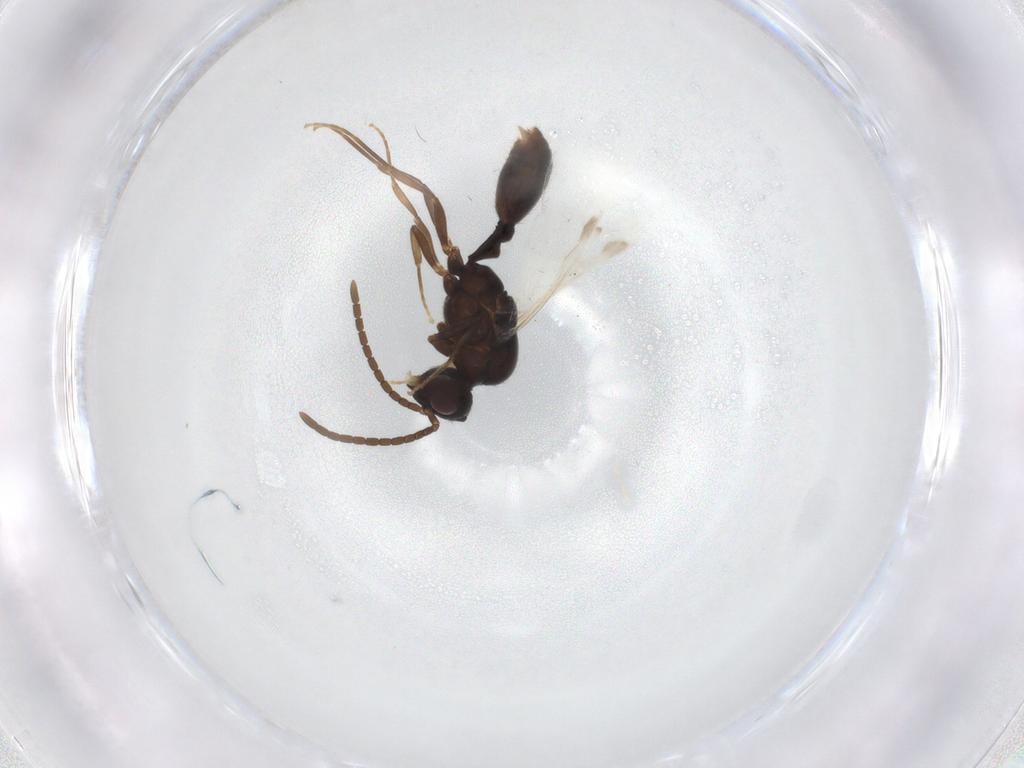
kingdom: Animalia
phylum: Arthropoda
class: Insecta
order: Hymenoptera
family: Formicidae
